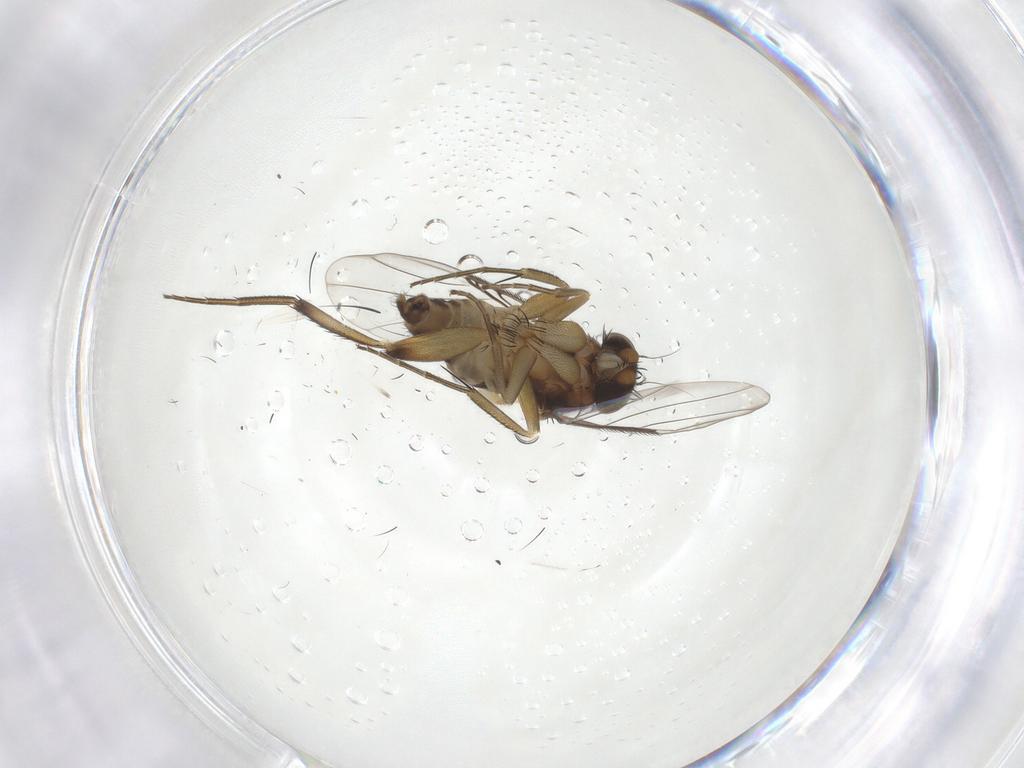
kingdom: Animalia
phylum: Arthropoda
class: Insecta
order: Diptera
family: Phoridae
